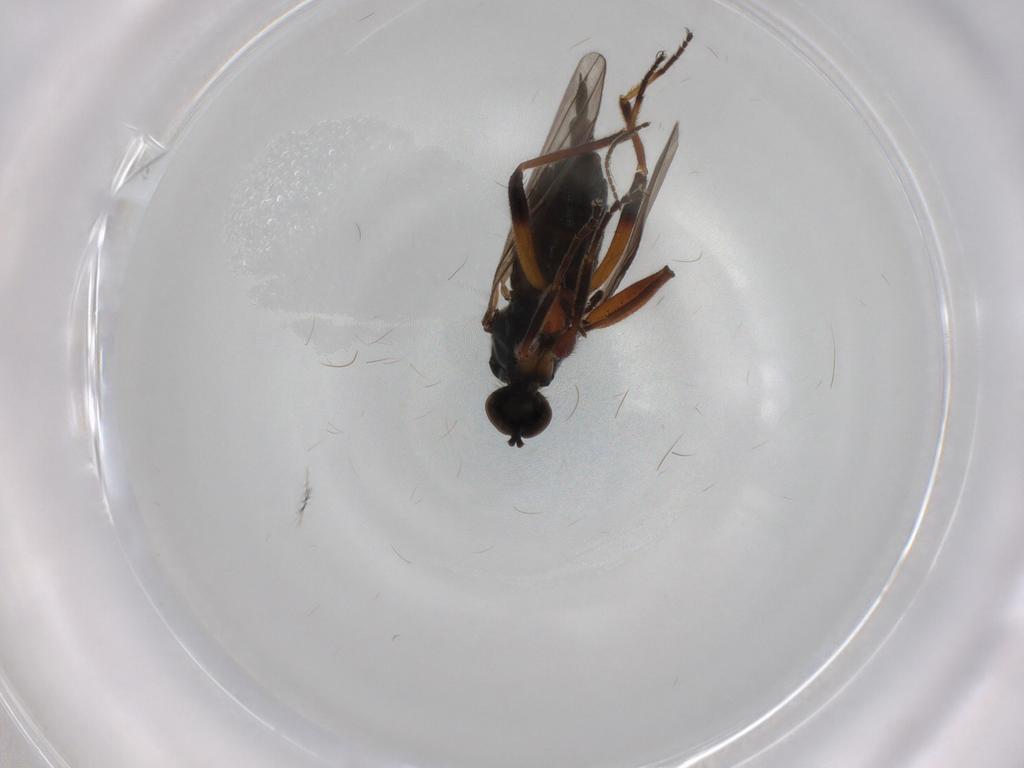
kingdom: Animalia
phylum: Arthropoda
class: Insecta
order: Diptera
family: Hybotidae
